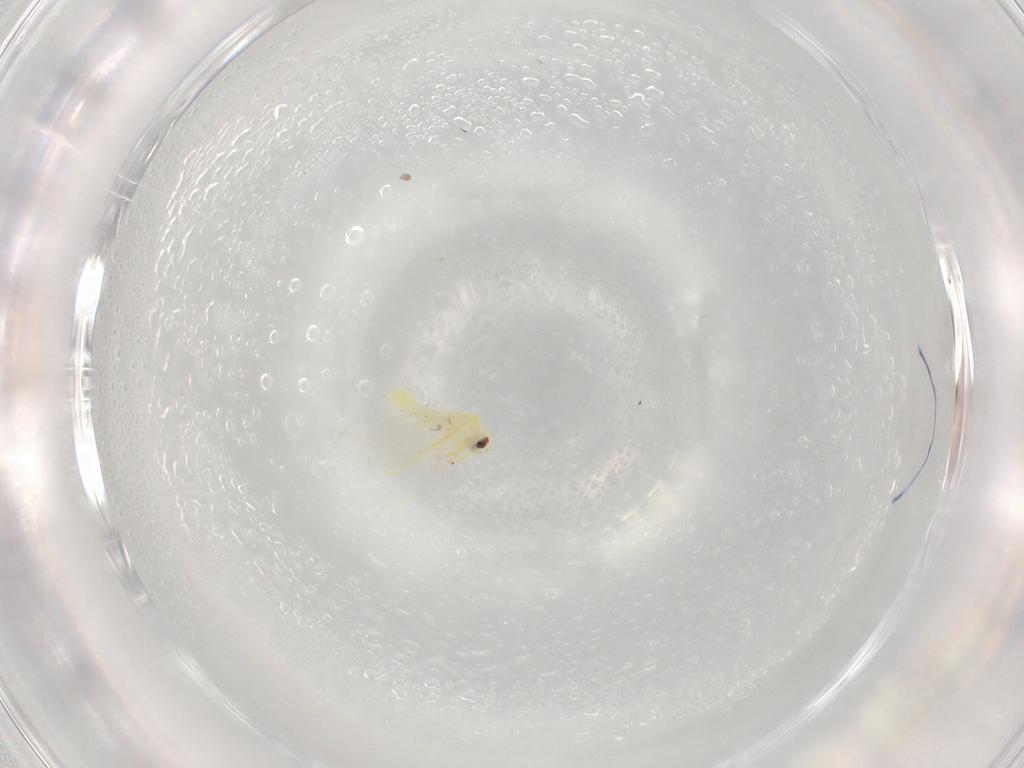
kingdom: Animalia
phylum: Arthropoda
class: Insecta
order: Hemiptera
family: Aleyrodidae
